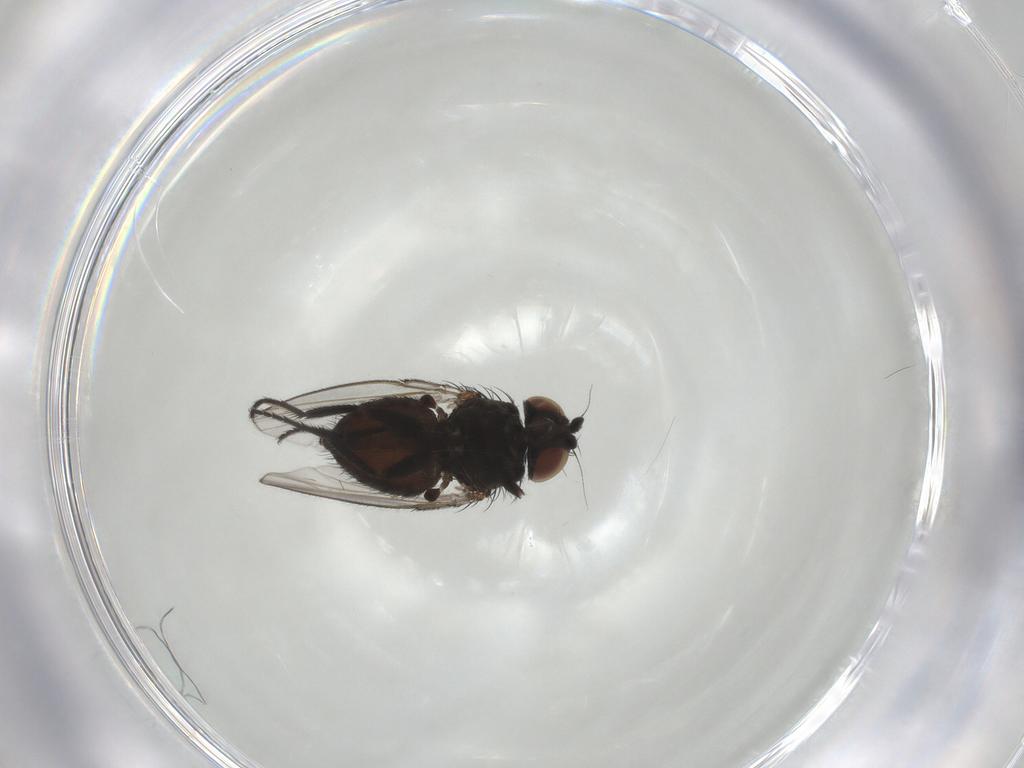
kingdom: Animalia
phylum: Arthropoda
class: Insecta
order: Diptera
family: Milichiidae
